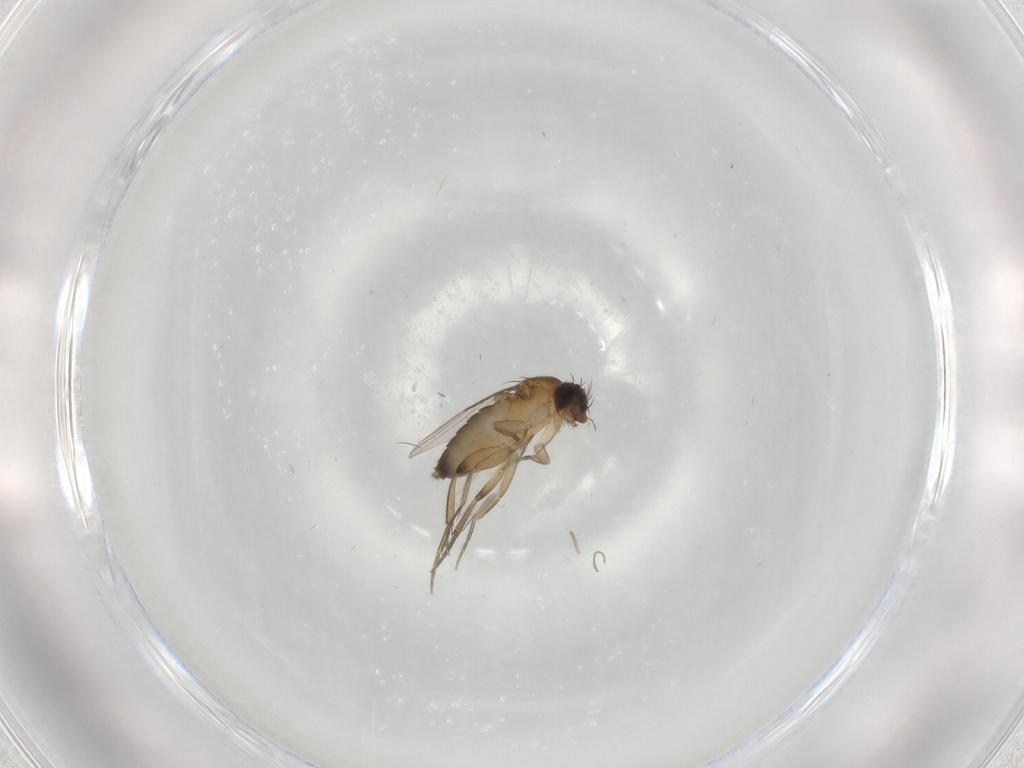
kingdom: Animalia
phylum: Arthropoda
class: Insecta
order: Diptera
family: Phoridae
